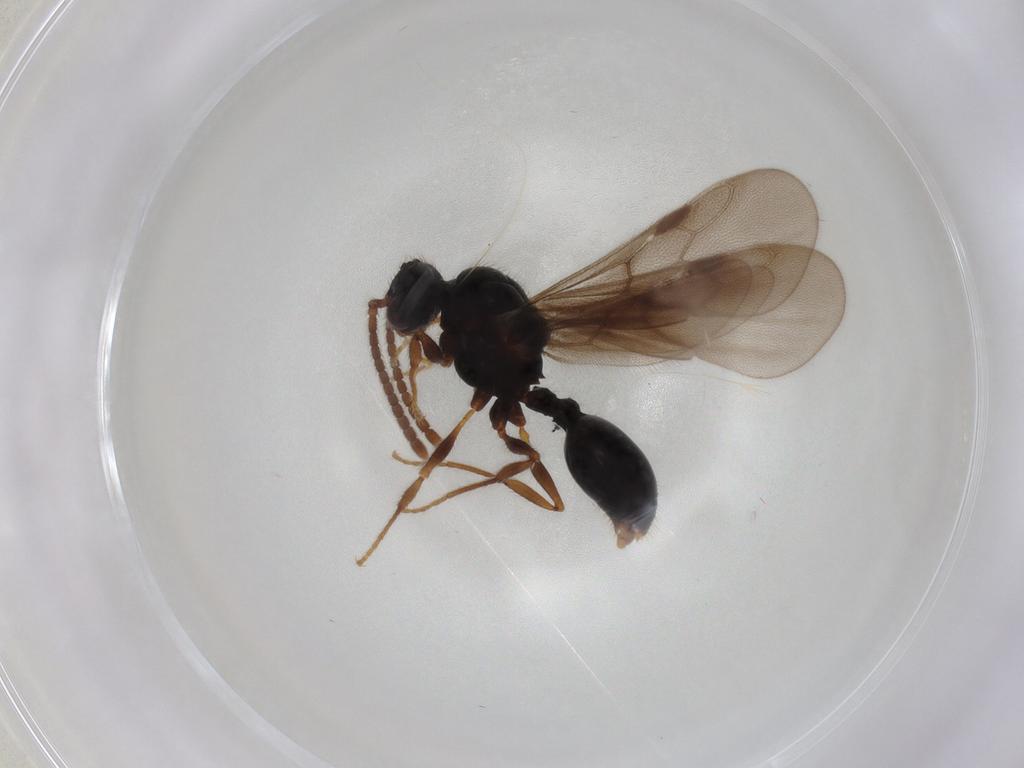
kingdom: Animalia
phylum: Arthropoda
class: Insecta
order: Hymenoptera
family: Formicidae
